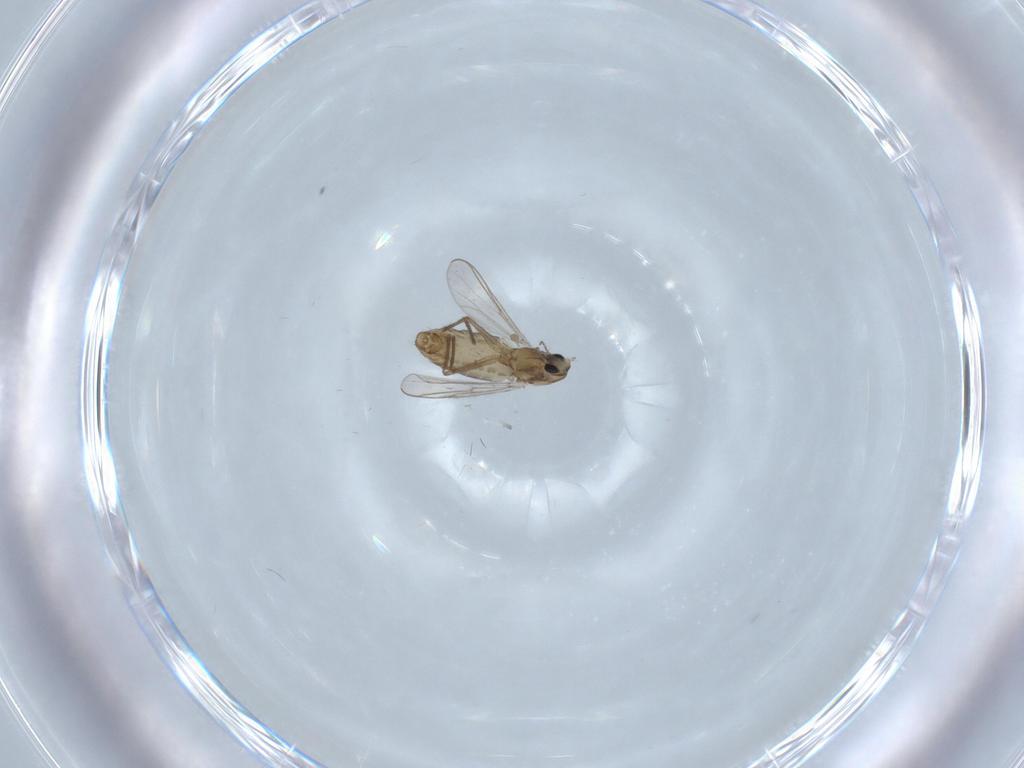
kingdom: Animalia
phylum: Arthropoda
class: Insecta
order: Diptera
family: Chironomidae
